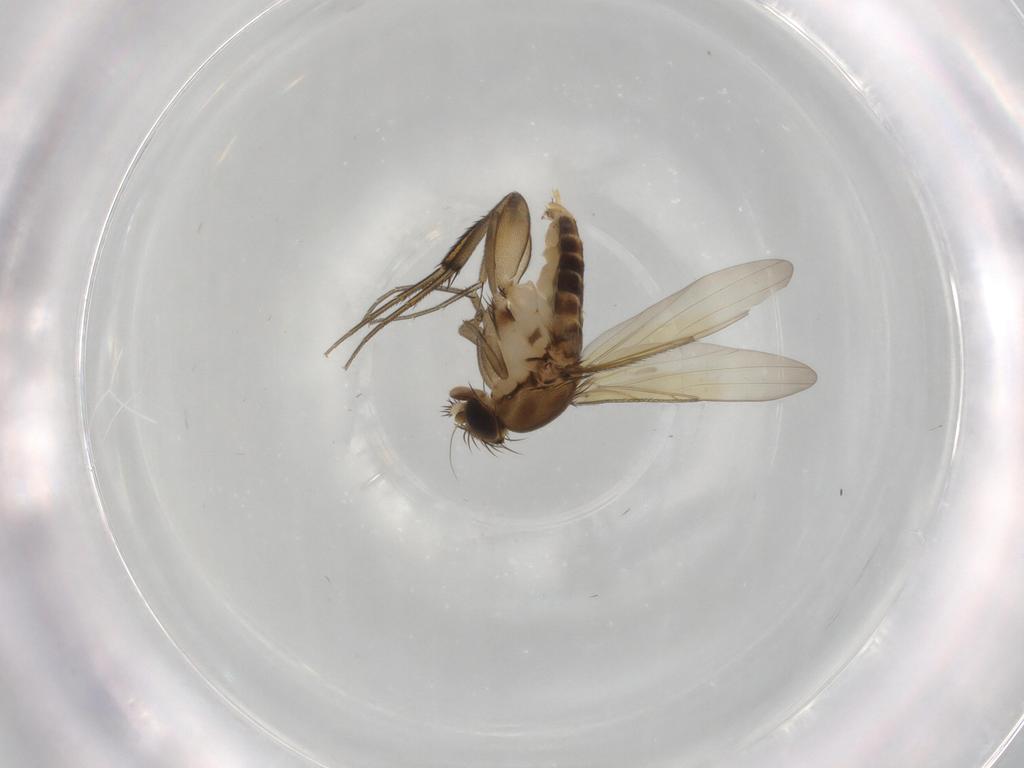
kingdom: Animalia
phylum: Arthropoda
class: Insecta
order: Diptera
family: Phoridae
